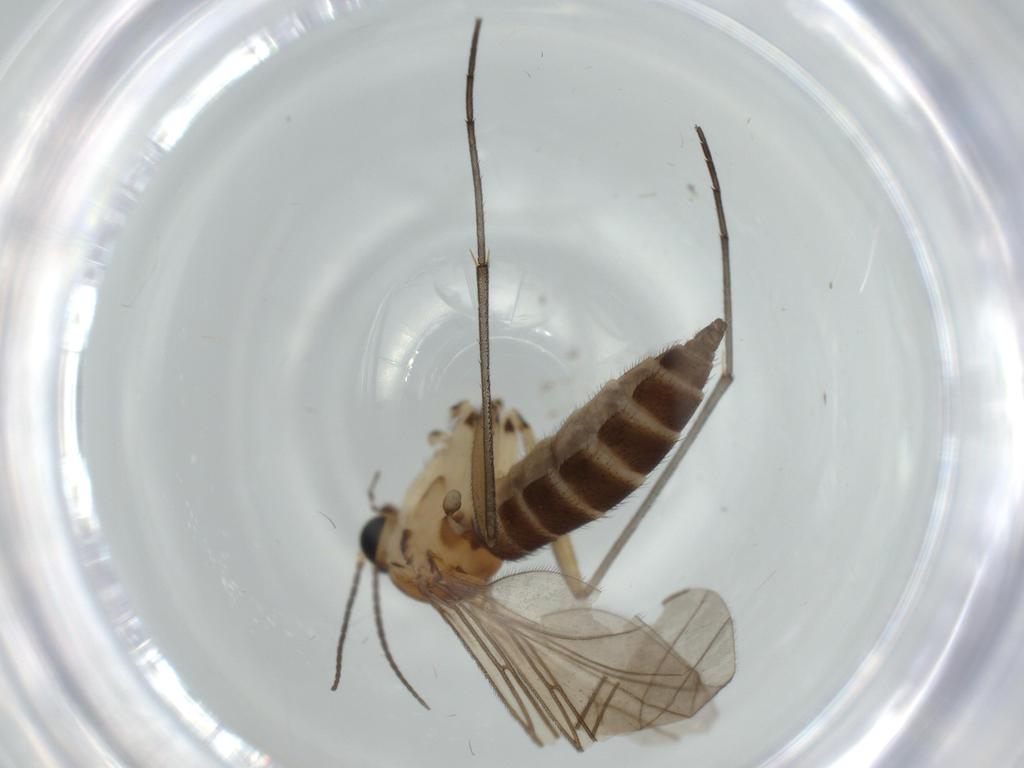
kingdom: Animalia
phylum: Arthropoda
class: Insecta
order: Diptera
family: Sciaridae
